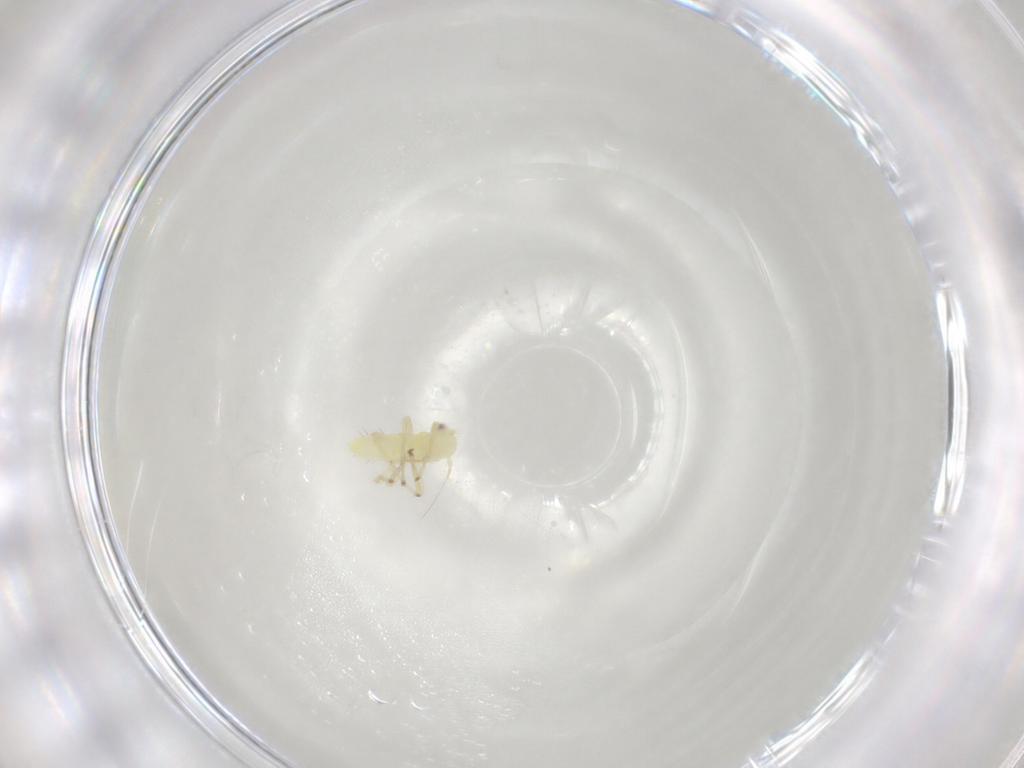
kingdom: Animalia
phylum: Arthropoda
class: Insecta
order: Hemiptera
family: Cicadellidae
